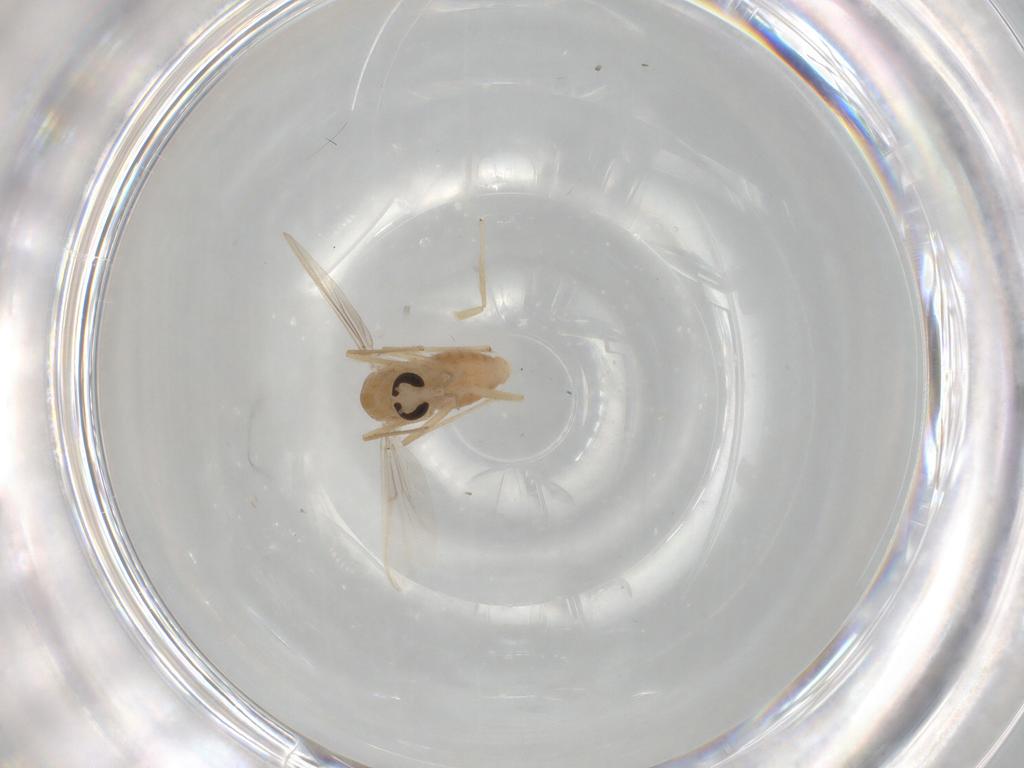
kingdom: Animalia
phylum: Arthropoda
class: Insecta
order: Diptera
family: Chironomidae
